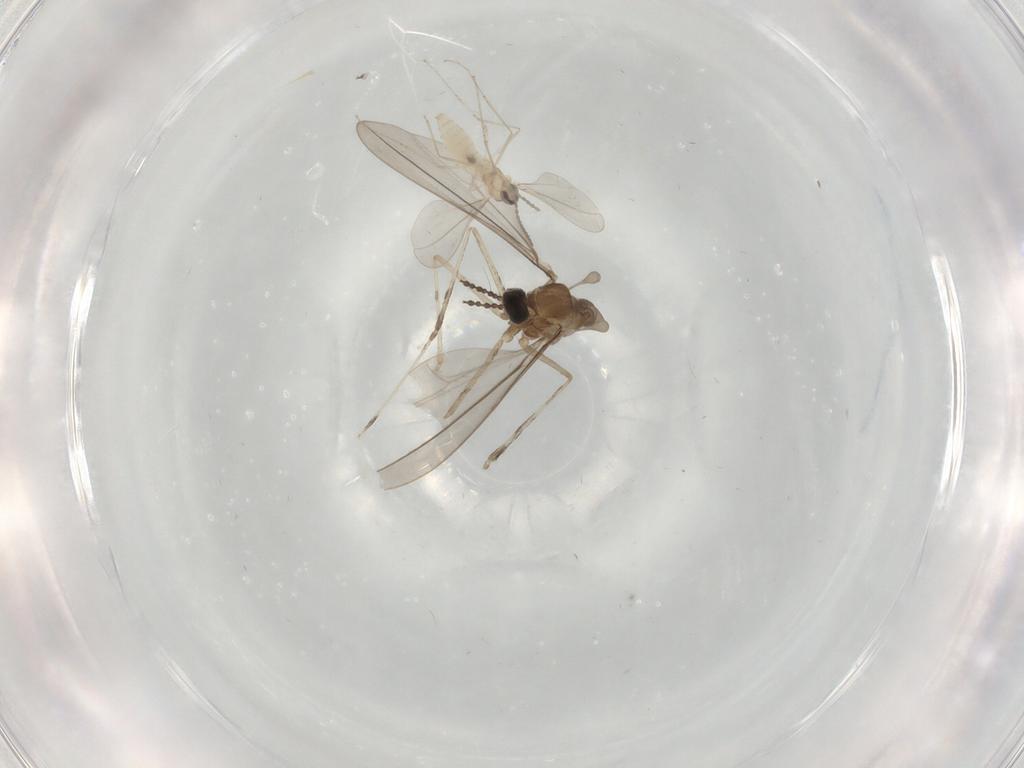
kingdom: Animalia
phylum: Arthropoda
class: Insecta
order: Diptera
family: Cecidomyiidae
